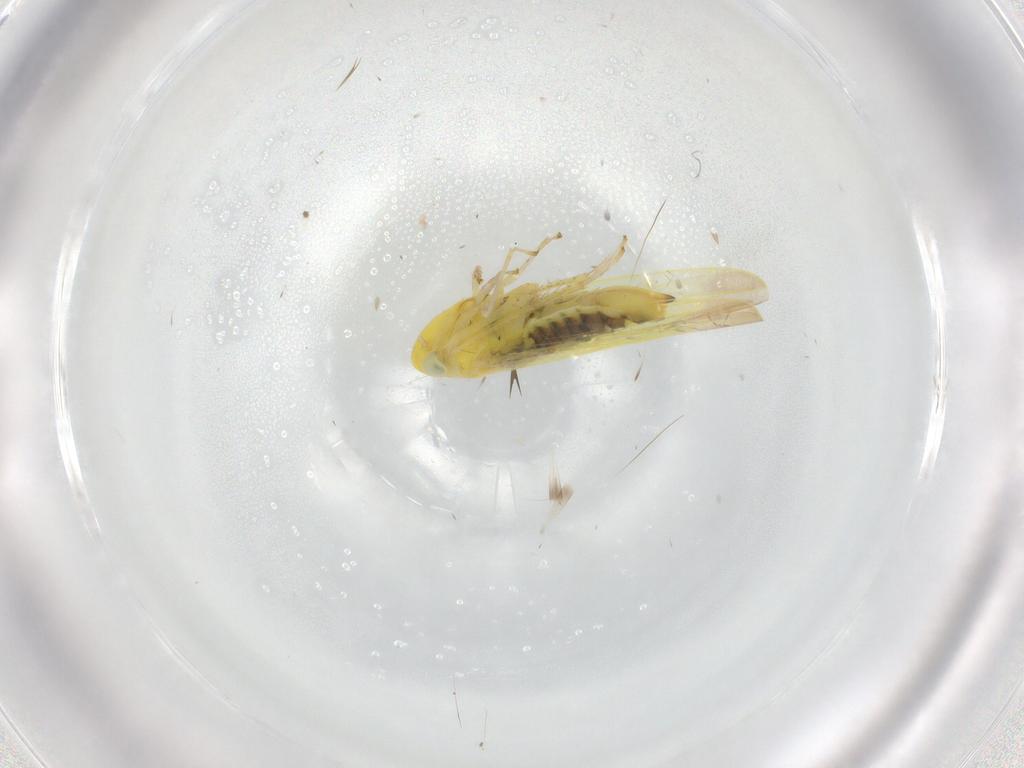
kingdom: Animalia
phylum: Arthropoda
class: Insecta
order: Hemiptera
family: Cicadellidae
